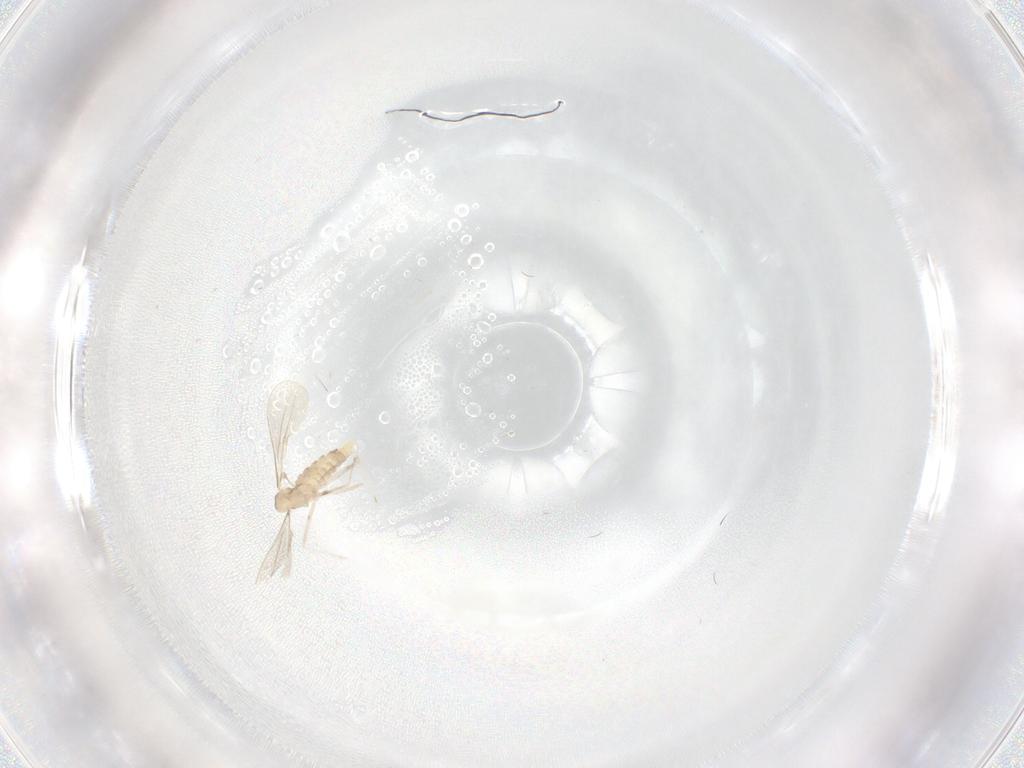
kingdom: Animalia
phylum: Arthropoda
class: Insecta
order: Diptera
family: Cecidomyiidae
